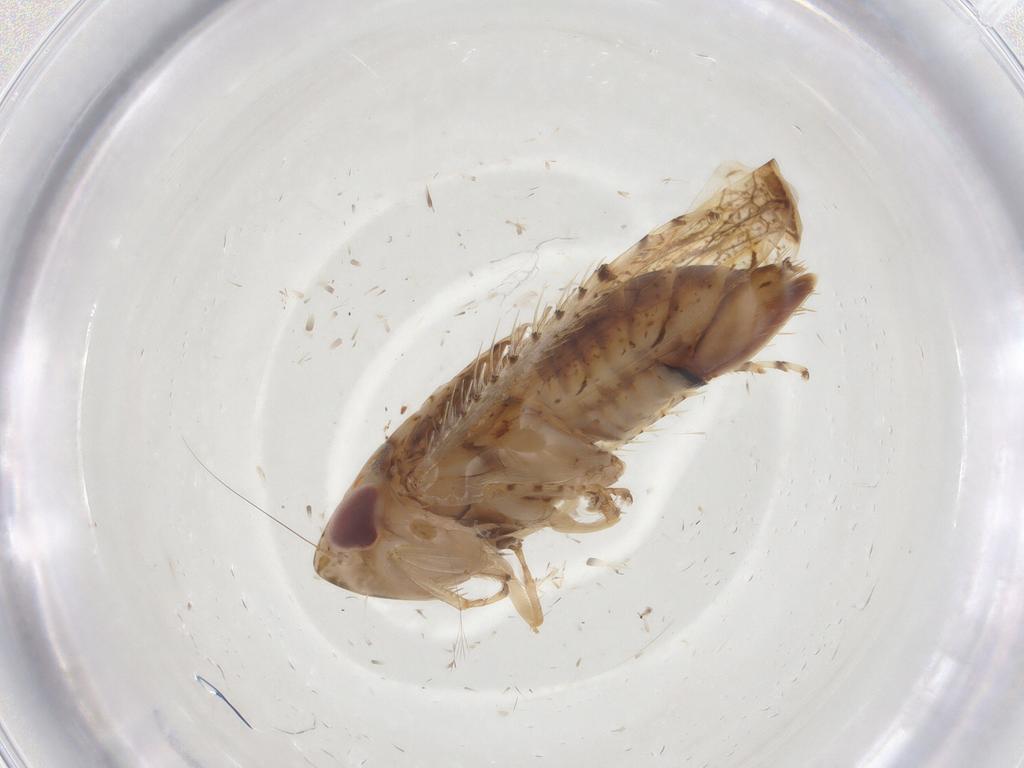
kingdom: Animalia
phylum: Arthropoda
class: Insecta
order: Hemiptera
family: Cicadellidae
